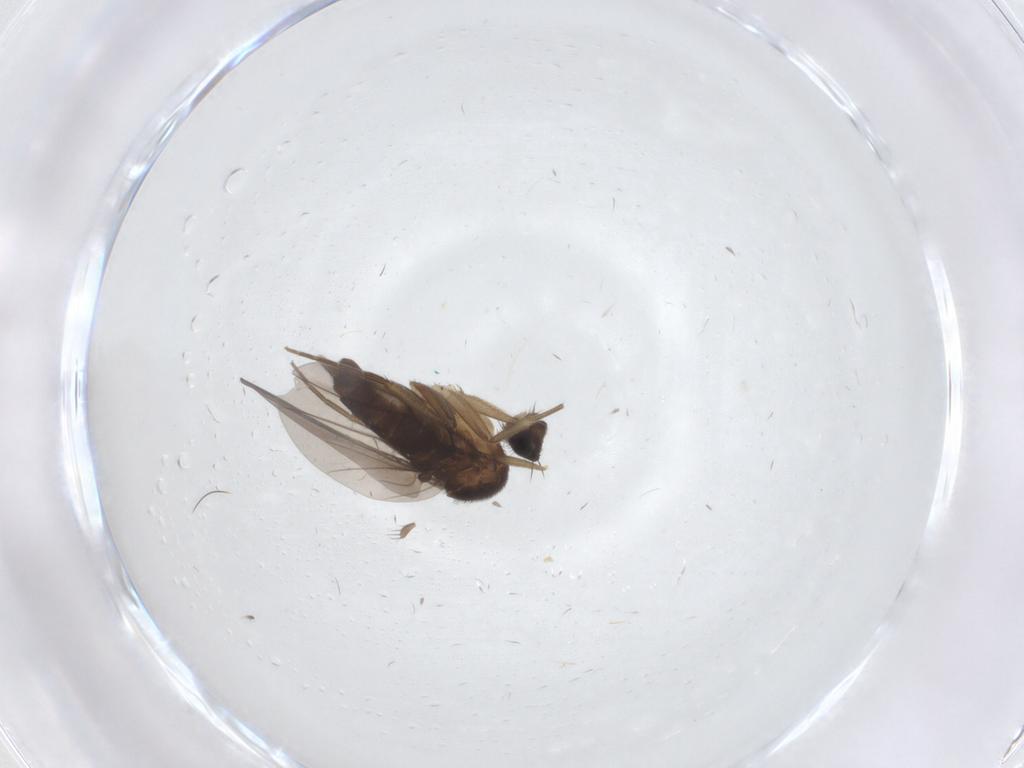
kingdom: Animalia
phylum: Arthropoda
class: Insecta
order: Diptera
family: Phoridae
